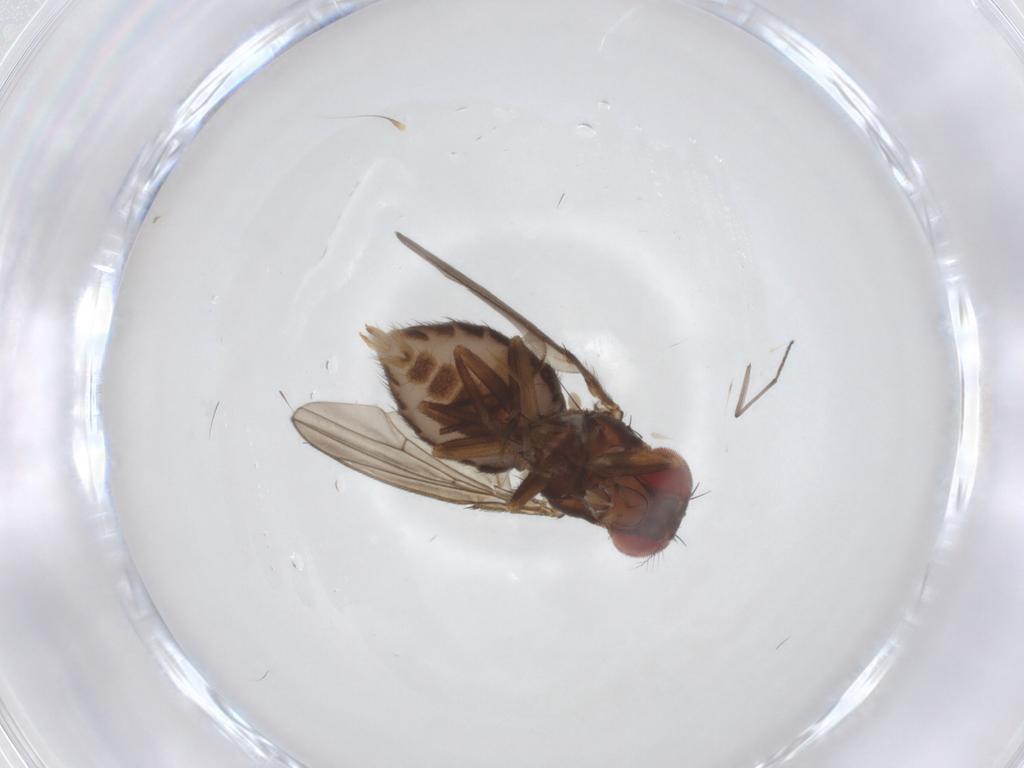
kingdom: Animalia
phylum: Arthropoda
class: Insecta
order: Diptera
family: Drosophilidae
